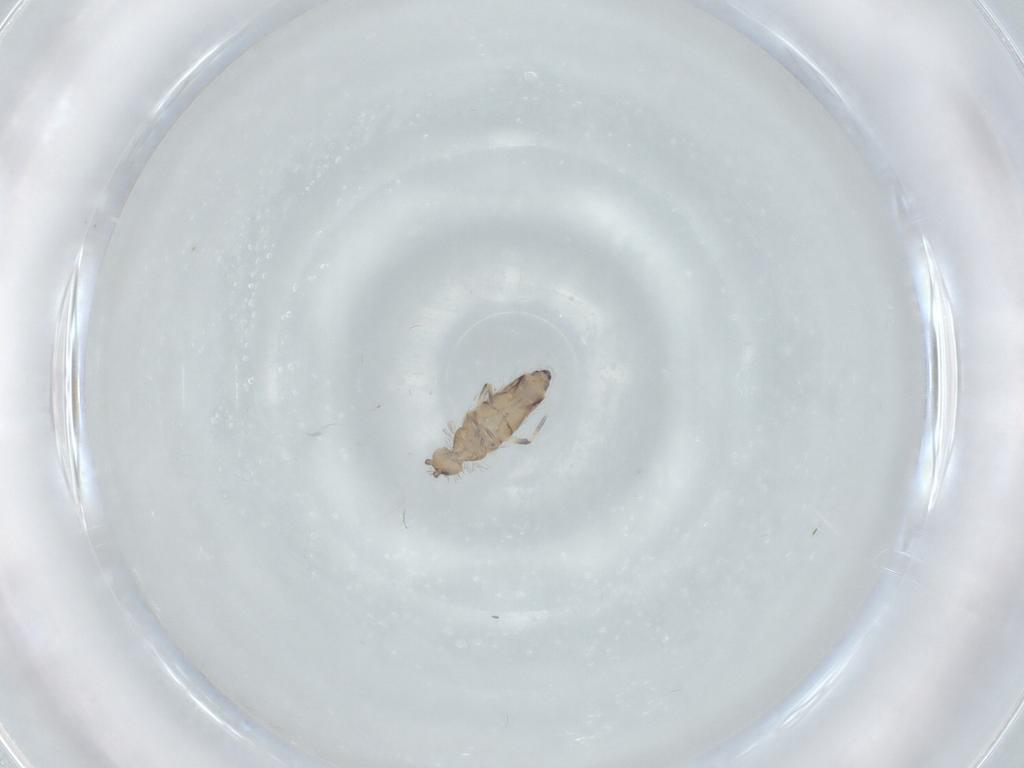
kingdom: Animalia
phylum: Arthropoda
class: Collembola
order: Entomobryomorpha
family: Entomobryidae
